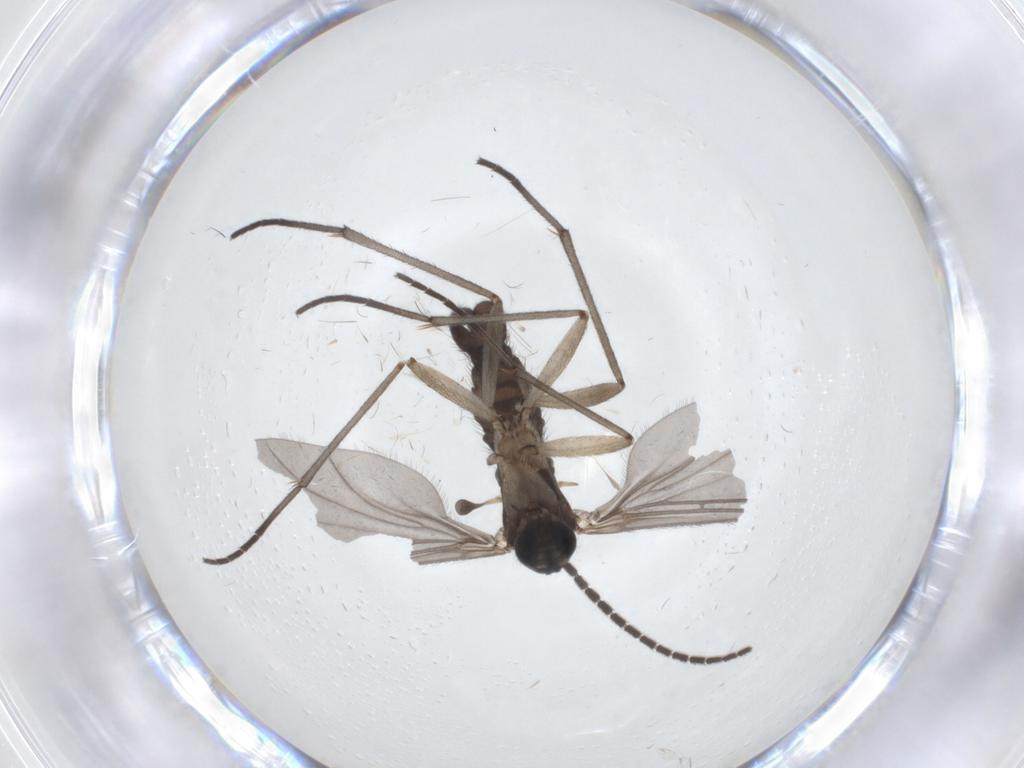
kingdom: Animalia
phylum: Arthropoda
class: Insecta
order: Diptera
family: Sciaridae
